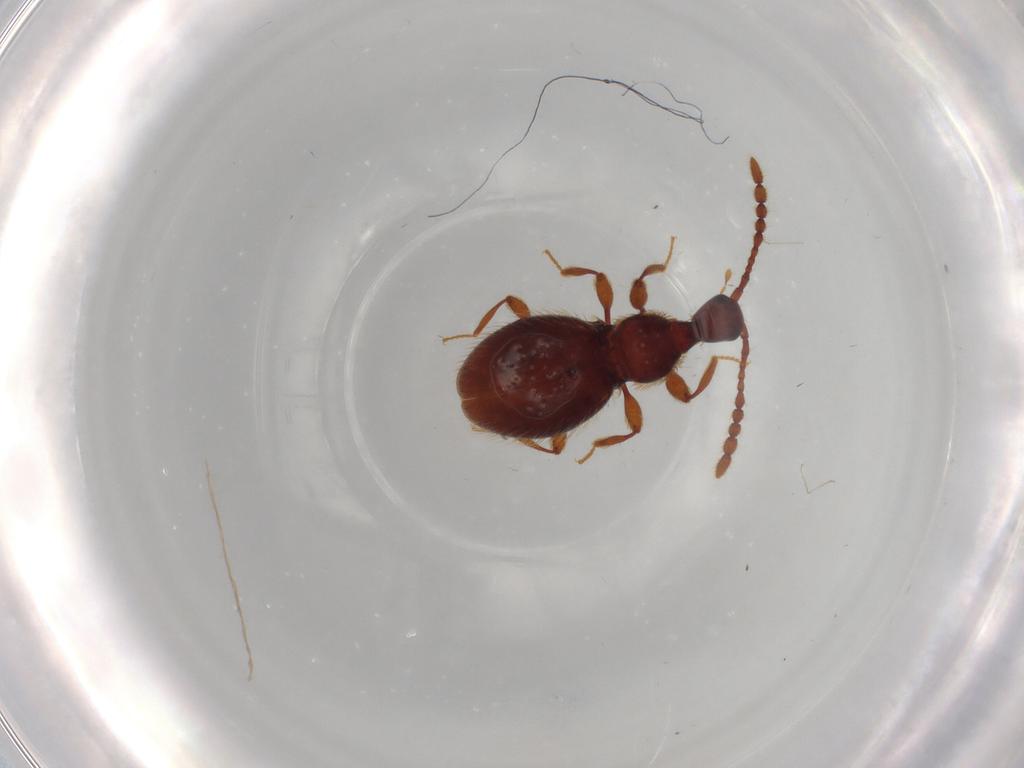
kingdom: Animalia
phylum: Arthropoda
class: Insecta
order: Coleoptera
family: Scarabaeidae
